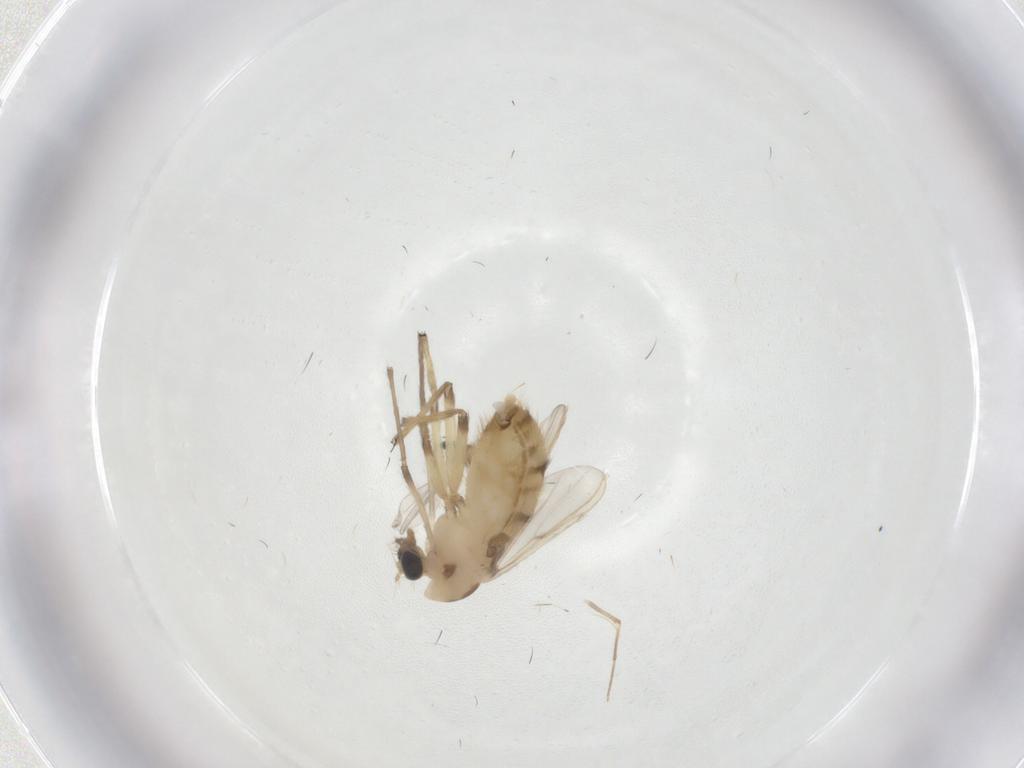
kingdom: Animalia
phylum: Arthropoda
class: Insecta
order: Diptera
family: Chironomidae
